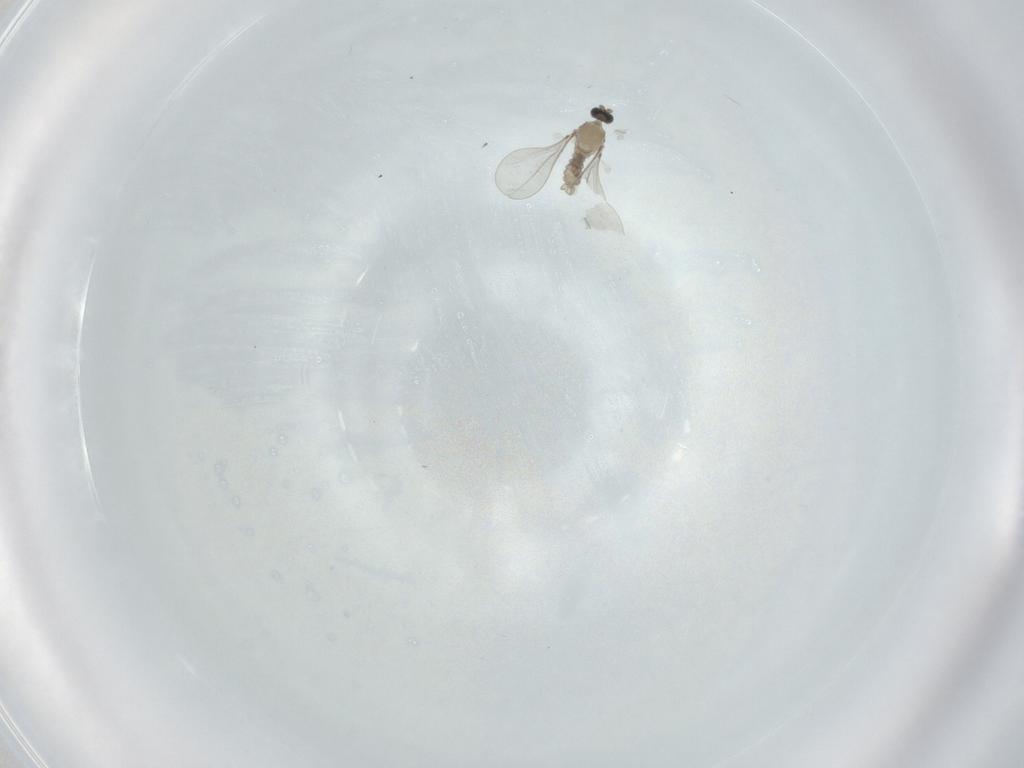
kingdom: Animalia
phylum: Arthropoda
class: Insecta
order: Diptera
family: Cecidomyiidae
